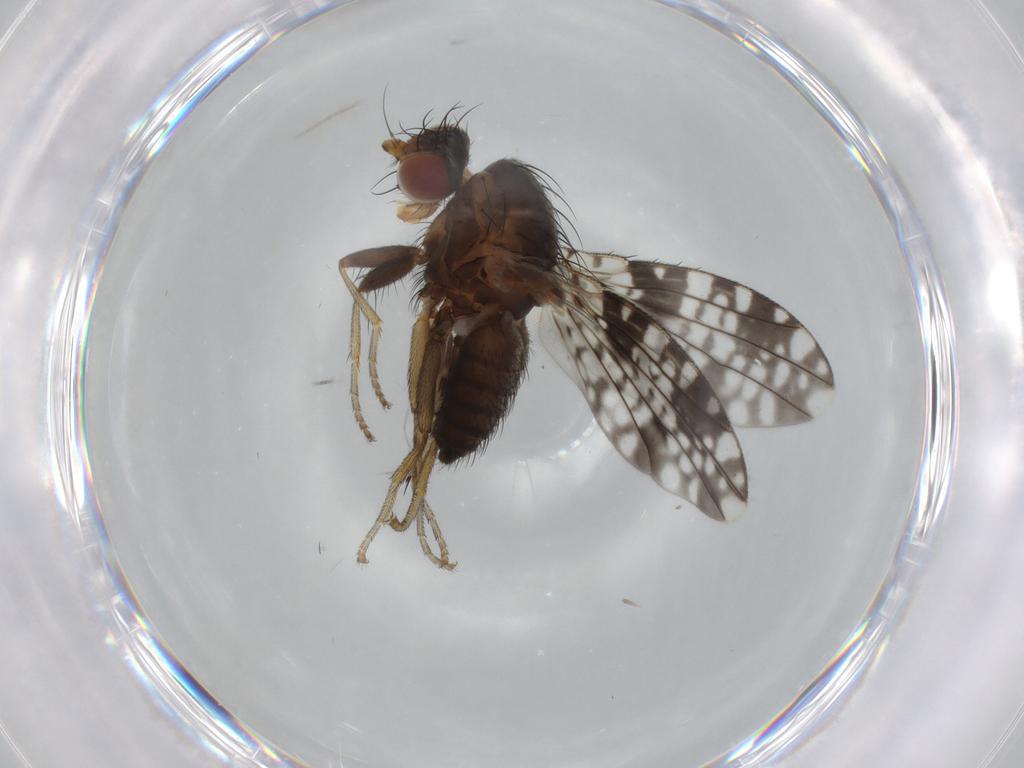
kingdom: Animalia
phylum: Arthropoda
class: Insecta
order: Diptera
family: Tephritidae
